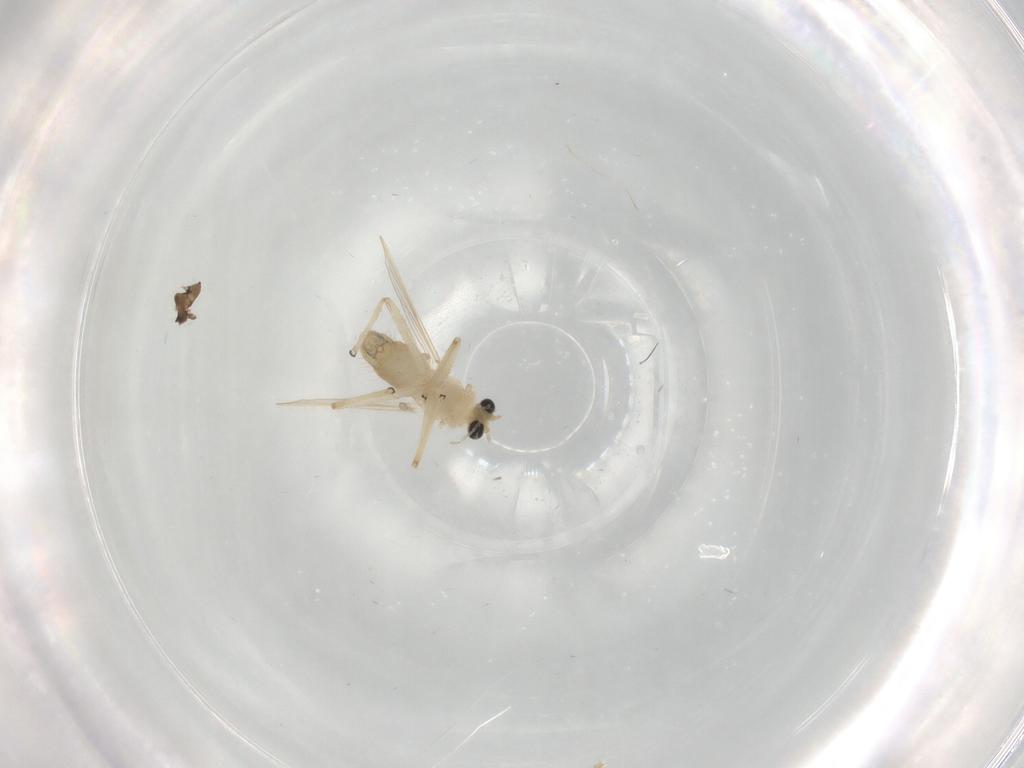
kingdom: Animalia
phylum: Arthropoda
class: Insecta
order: Diptera
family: Chironomidae
